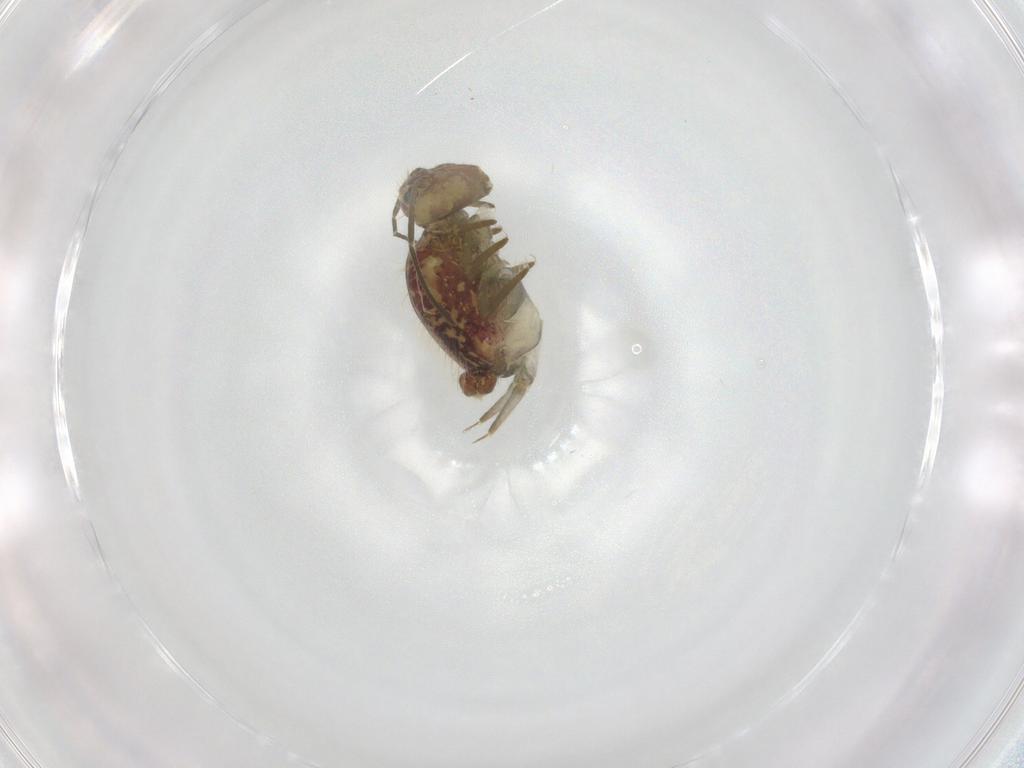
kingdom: Animalia
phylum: Arthropoda
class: Collembola
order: Symphypleona
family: Sminthuridae
